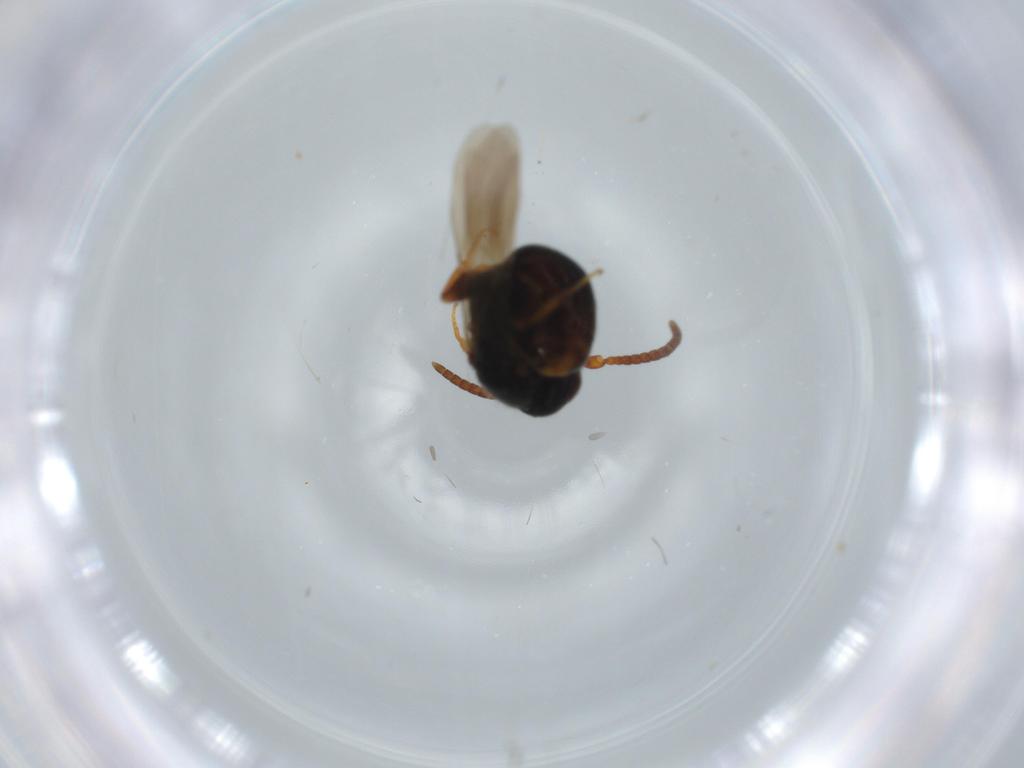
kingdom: Animalia
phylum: Arthropoda
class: Insecta
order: Hymenoptera
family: Bethylidae
